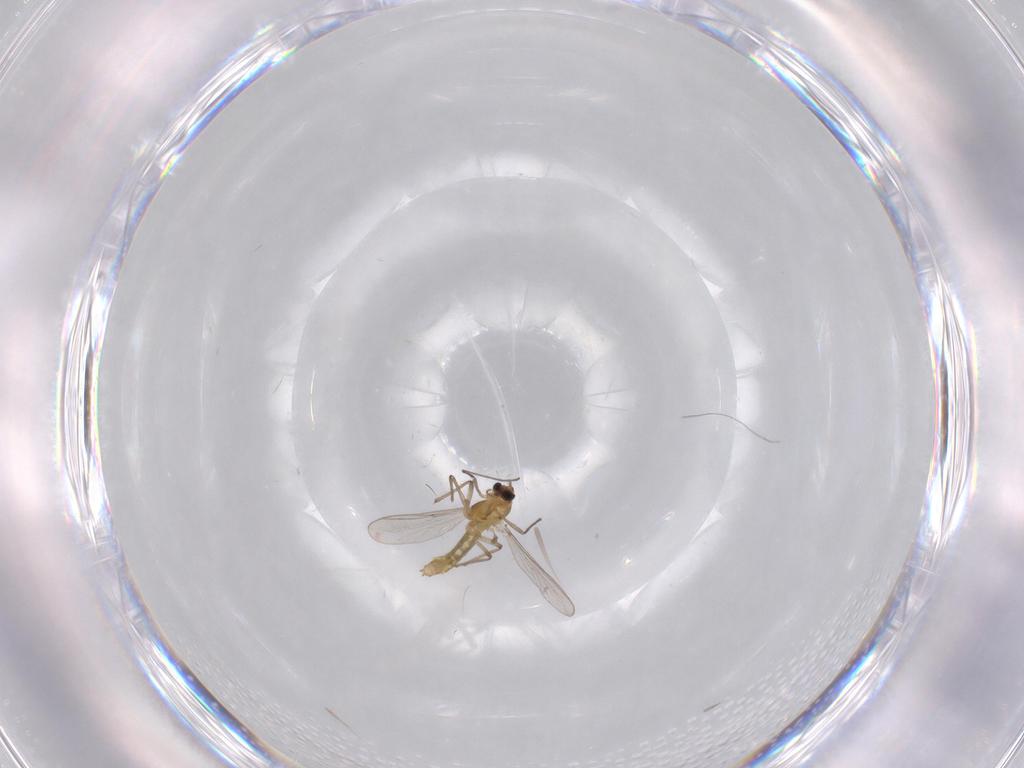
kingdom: Animalia
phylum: Arthropoda
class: Insecta
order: Diptera
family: Chironomidae
